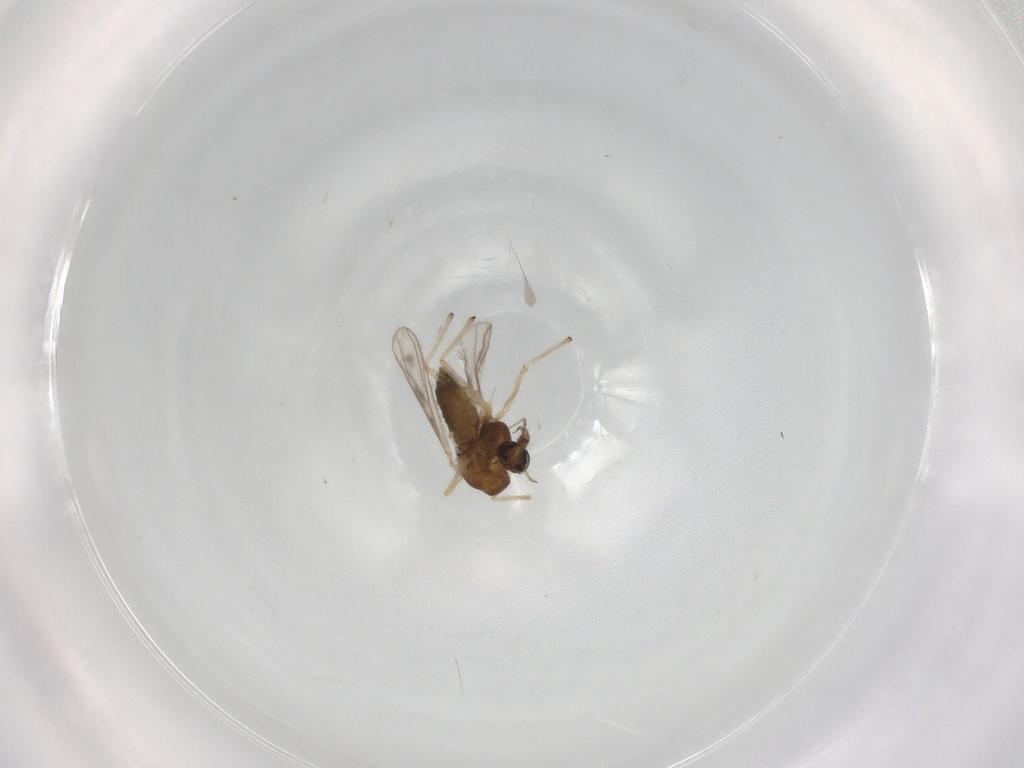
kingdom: Animalia
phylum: Arthropoda
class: Insecta
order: Diptera
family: Chironomidae
